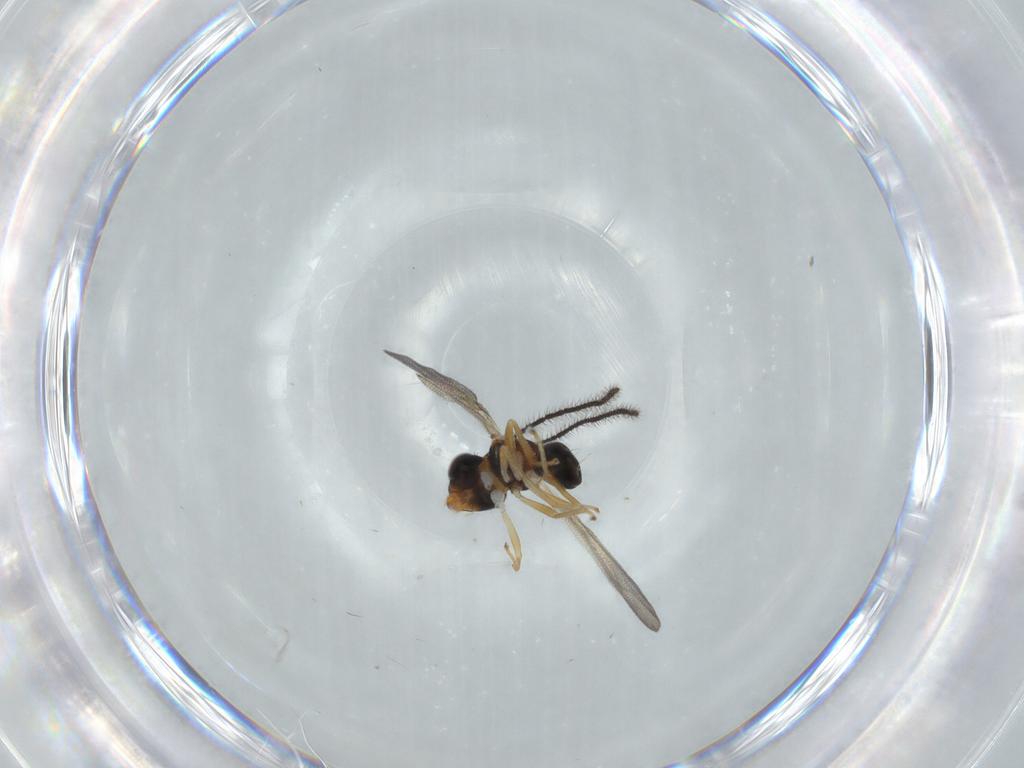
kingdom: Animalia
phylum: Arthropoda
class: Insecta
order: Hymenoptera
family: Diparidae
